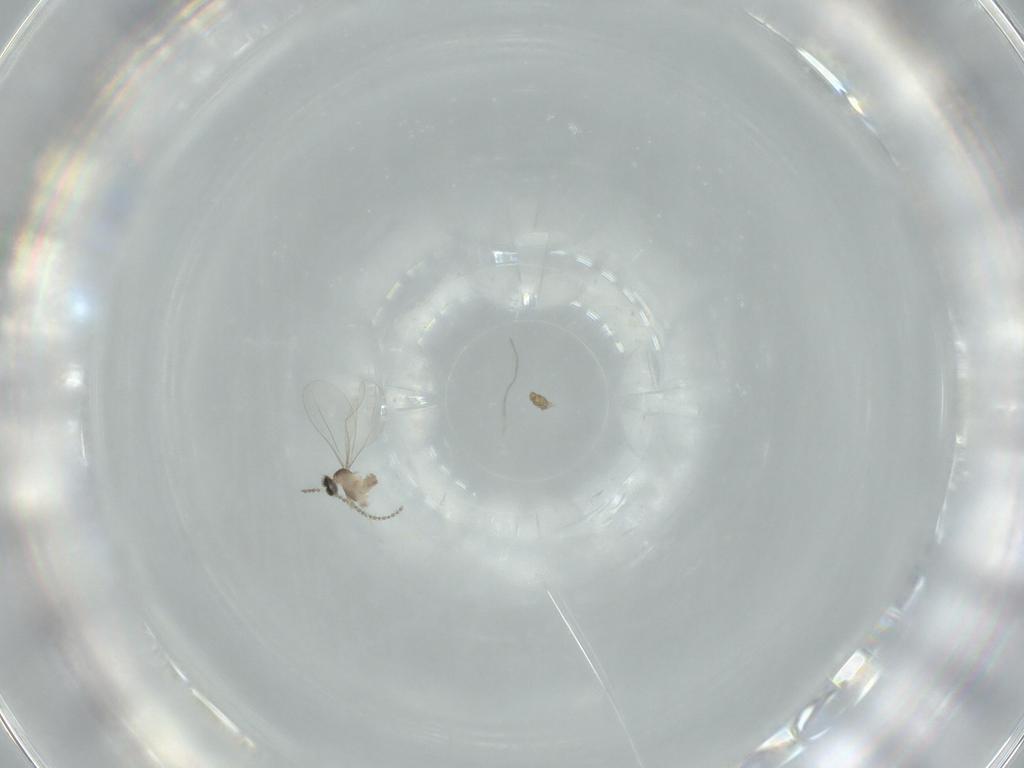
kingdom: Animalia
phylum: Arthropoda
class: Insecta
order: Diptera
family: Cecidomyiidae
